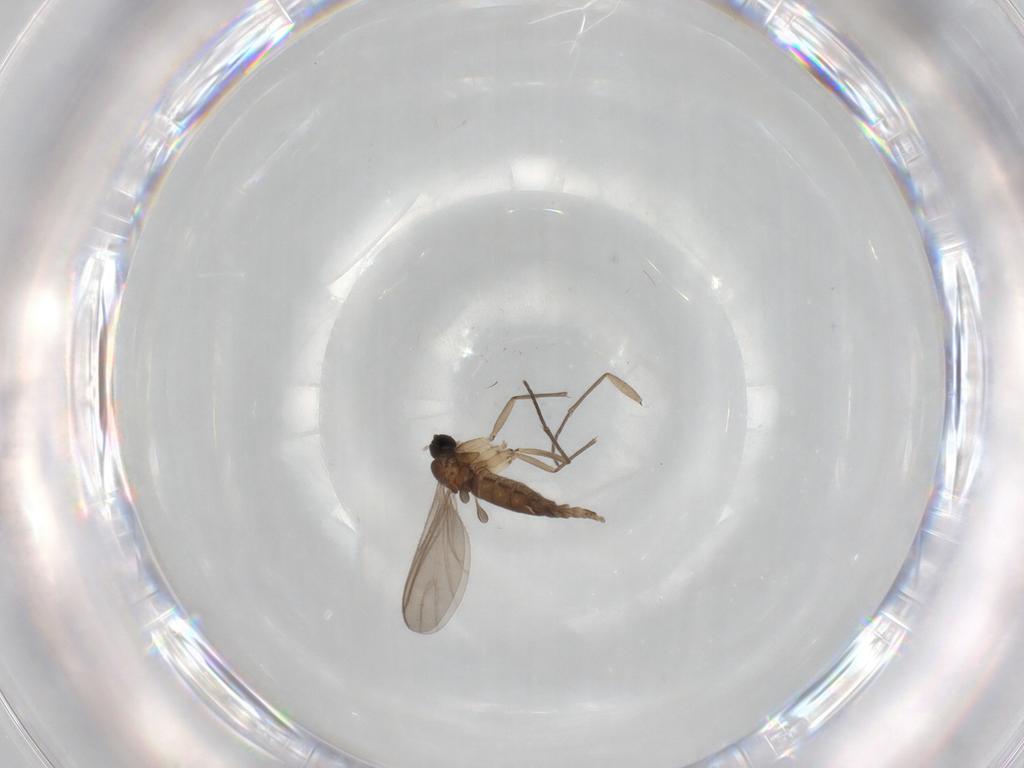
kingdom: Animalia
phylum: Arthropoda
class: Insecta
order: Diptera
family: Sciaridae
